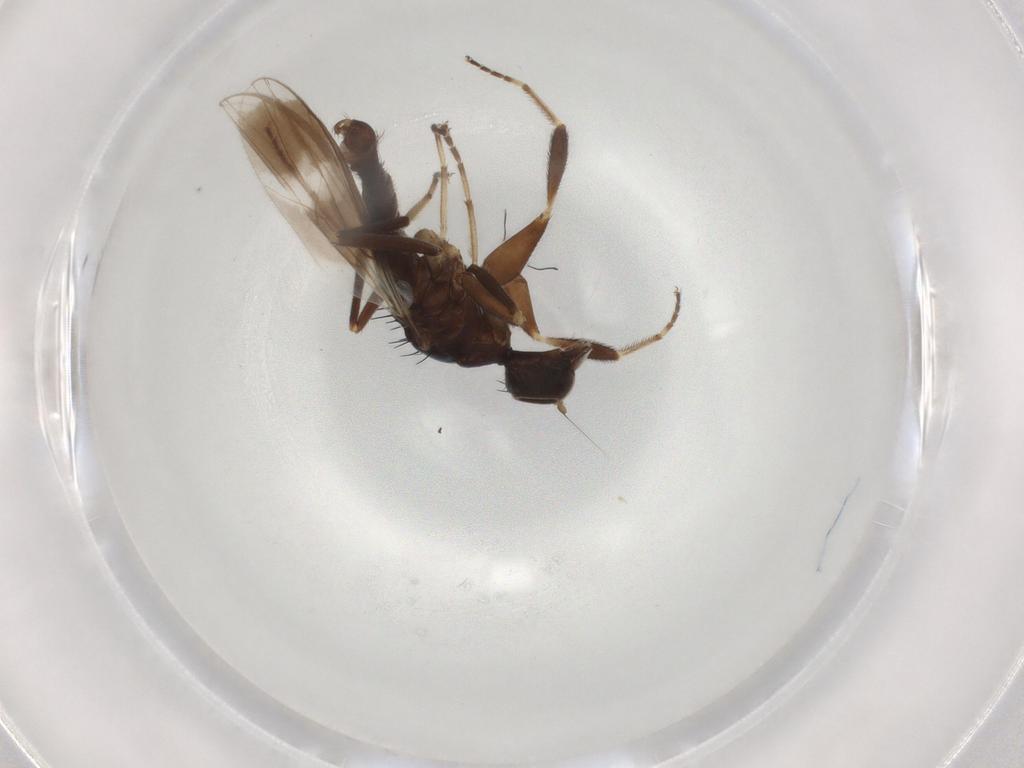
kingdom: Animalia
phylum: Arthropoda
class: Insecta
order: Diptera
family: Hybotidae
